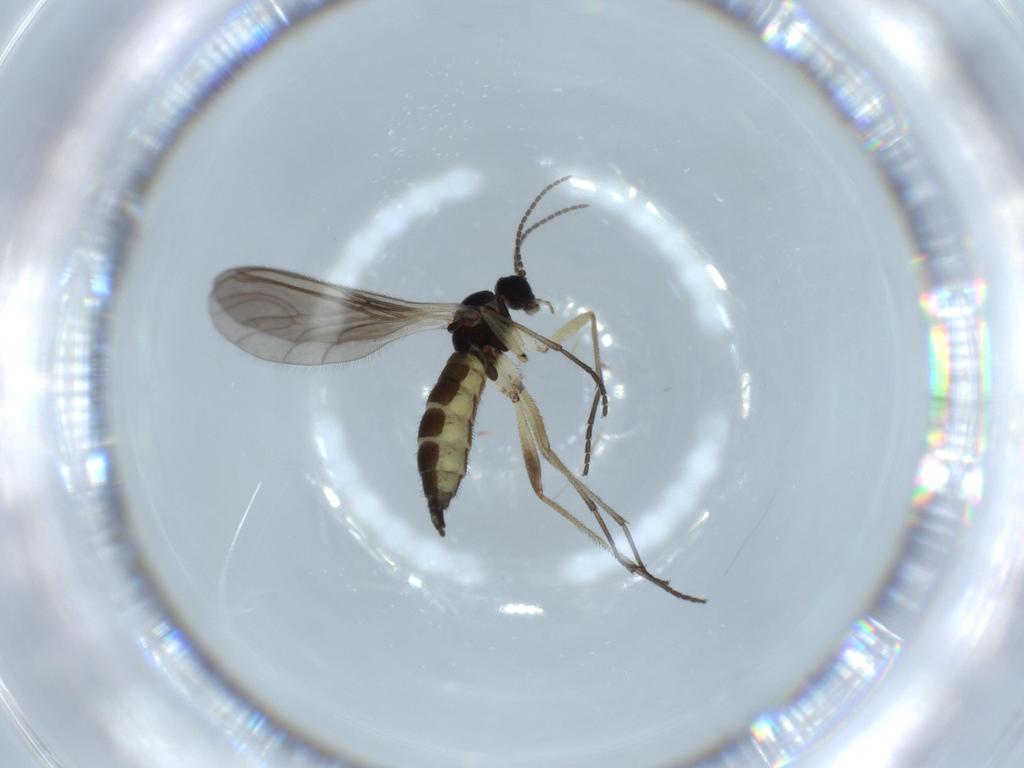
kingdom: Animalia
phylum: Arthropoda
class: Insecta
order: Diptera
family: Sciaridae
